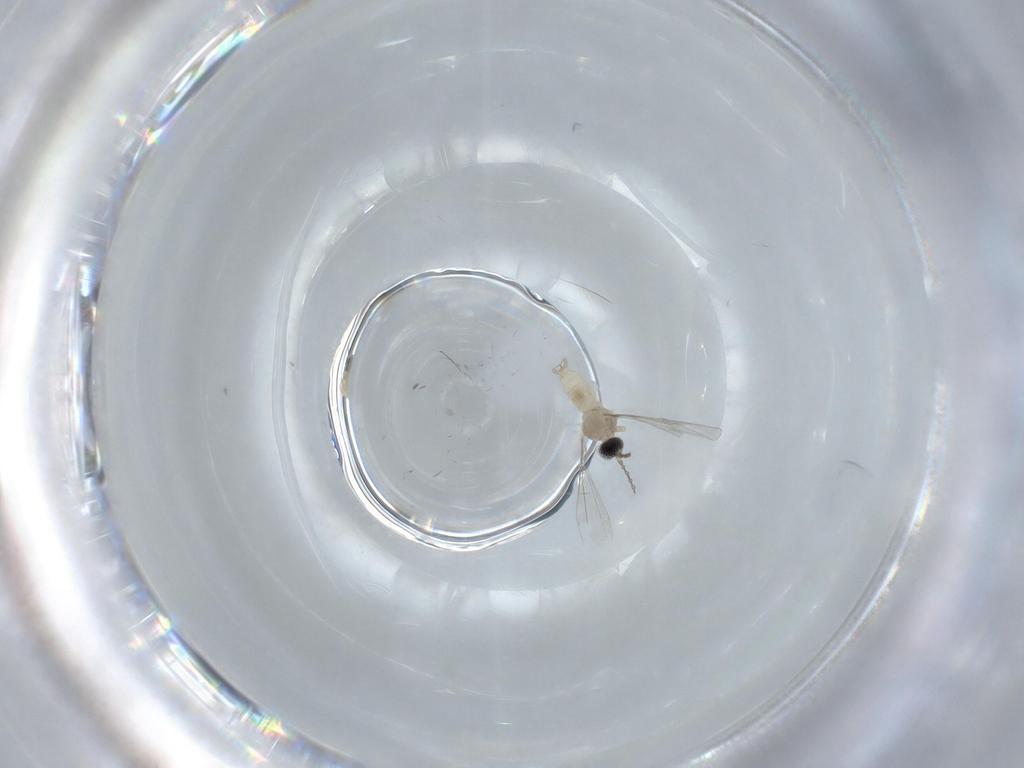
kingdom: Animalia
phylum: Arthropoda
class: Insecta
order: Diptera
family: Cecidomyiidae
